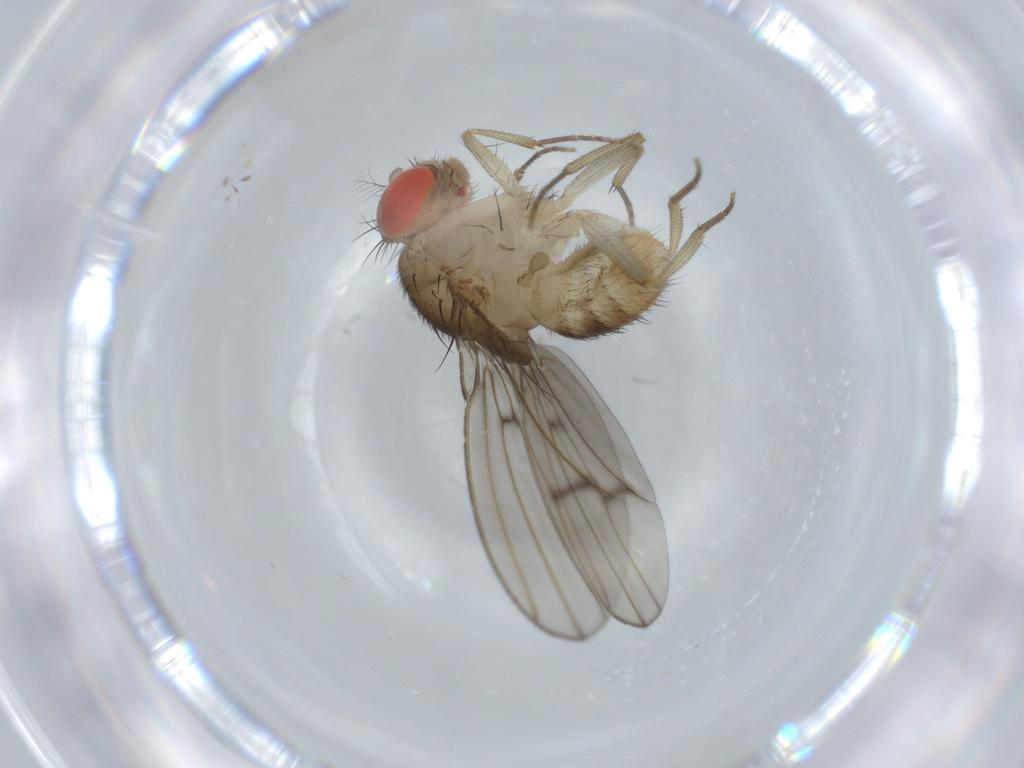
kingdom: Animalia
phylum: Arthropoda
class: Insecta
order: Diptera
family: Drosophilidae
